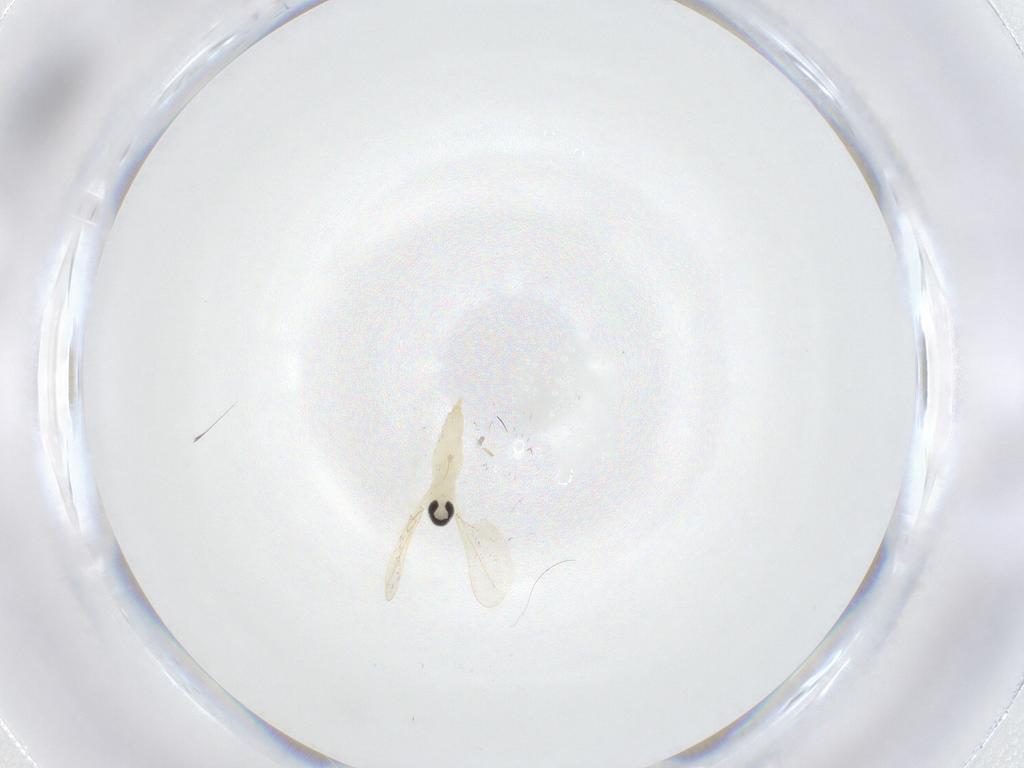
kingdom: Animalia
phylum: Arthropoda
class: Insecta
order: Diptera
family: Cecidomyiidae
